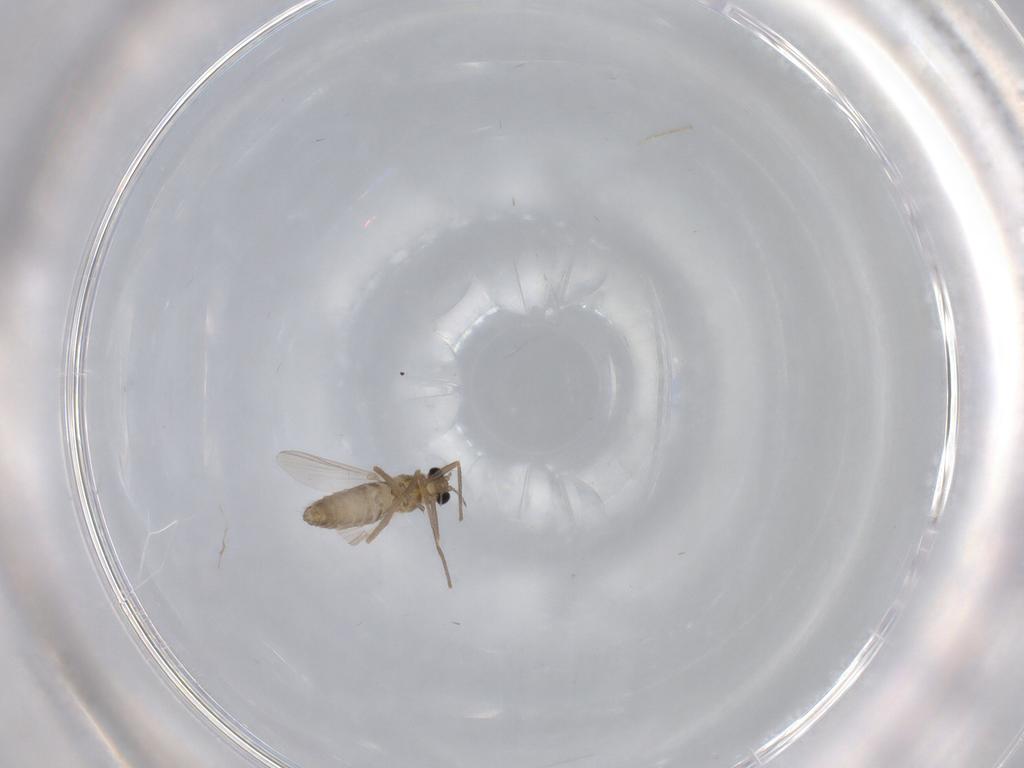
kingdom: Animalia
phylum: Arthropoda
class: Insecta
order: Diptera
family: Chironomidae
